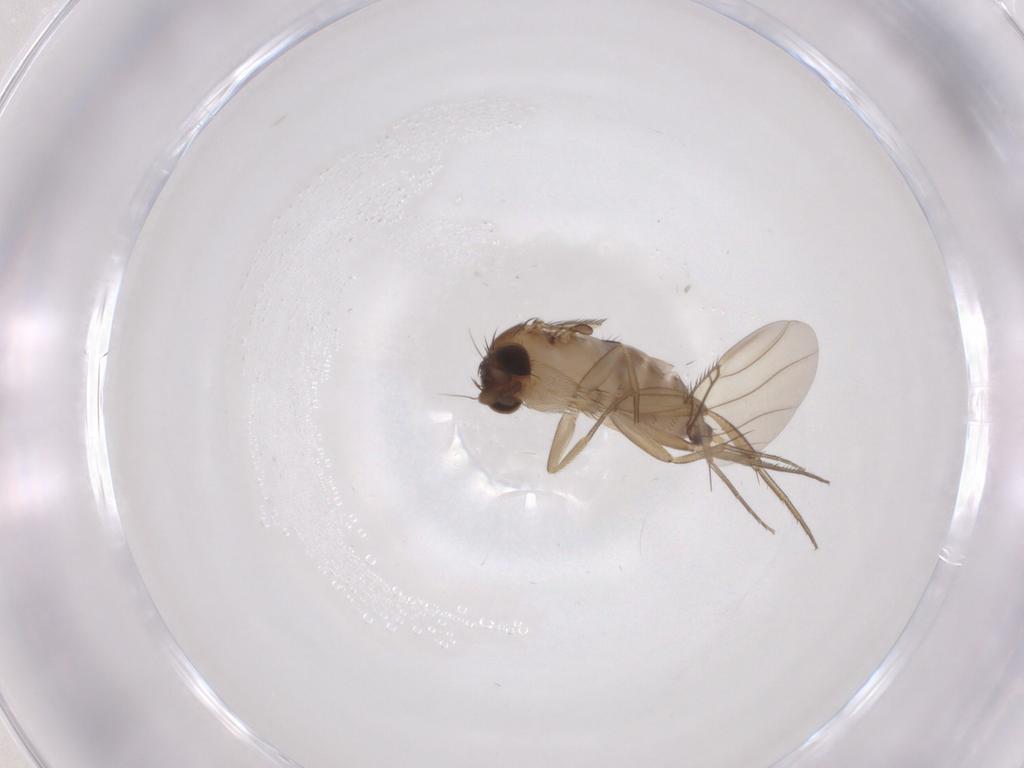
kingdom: Animalia
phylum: Arthropoda
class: Insecta
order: Diptera
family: Phoridae
